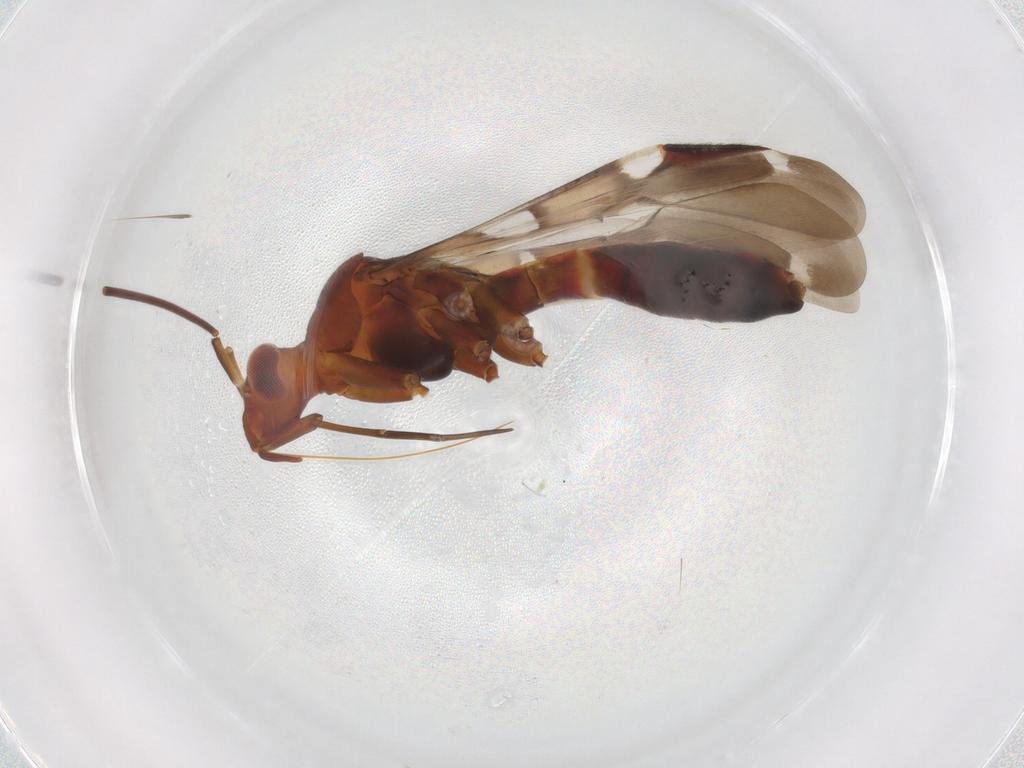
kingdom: Animalia
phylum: Arthropoda
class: Insecta
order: Hemiptera
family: Miridae
